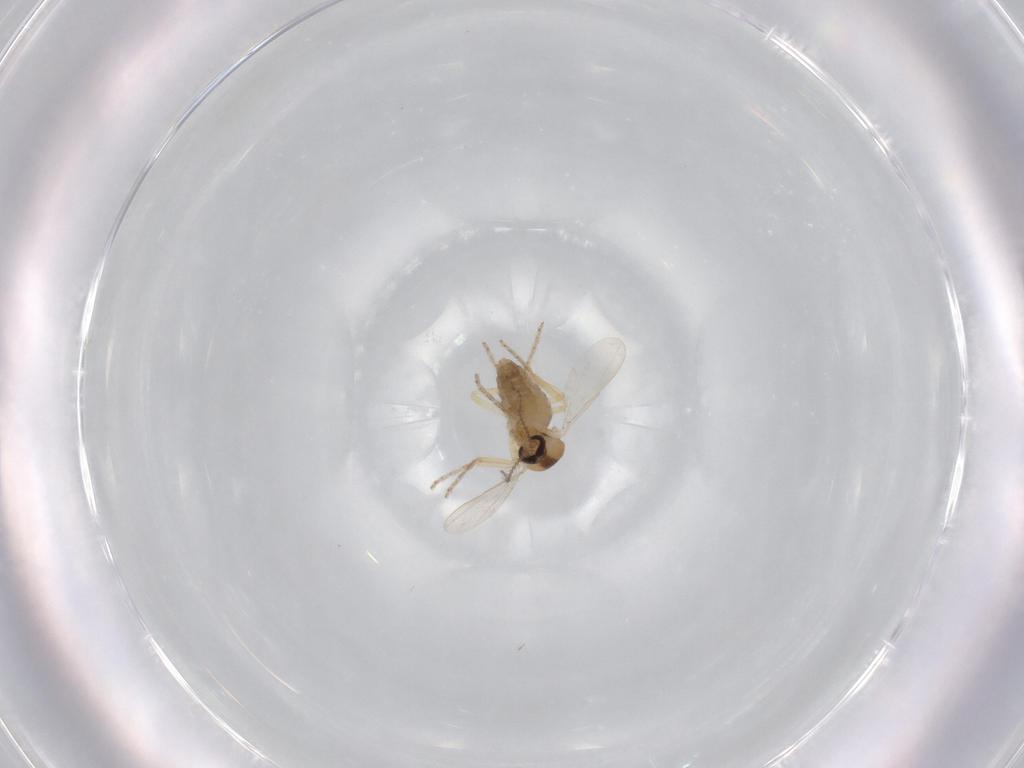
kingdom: Animalia
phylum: Arthropoda
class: Insecta
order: Diptera
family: Ceratopogonidae
